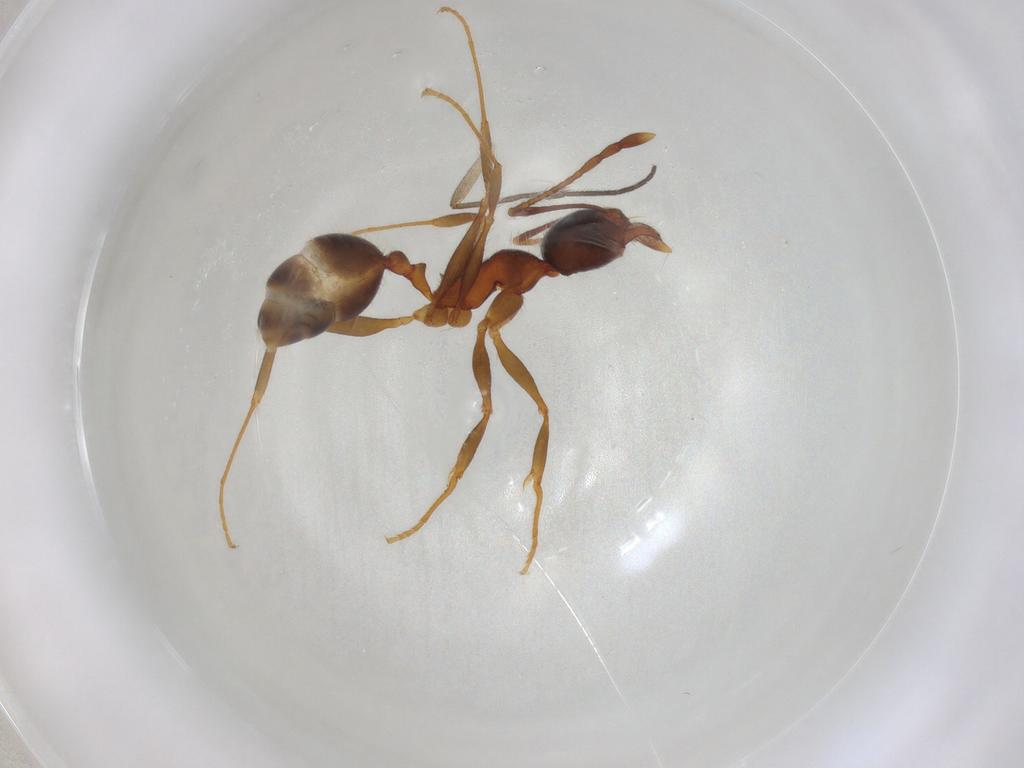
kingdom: Animalia
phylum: Arthropoda
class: Insecta
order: Hymenoptera
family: Formicidae
